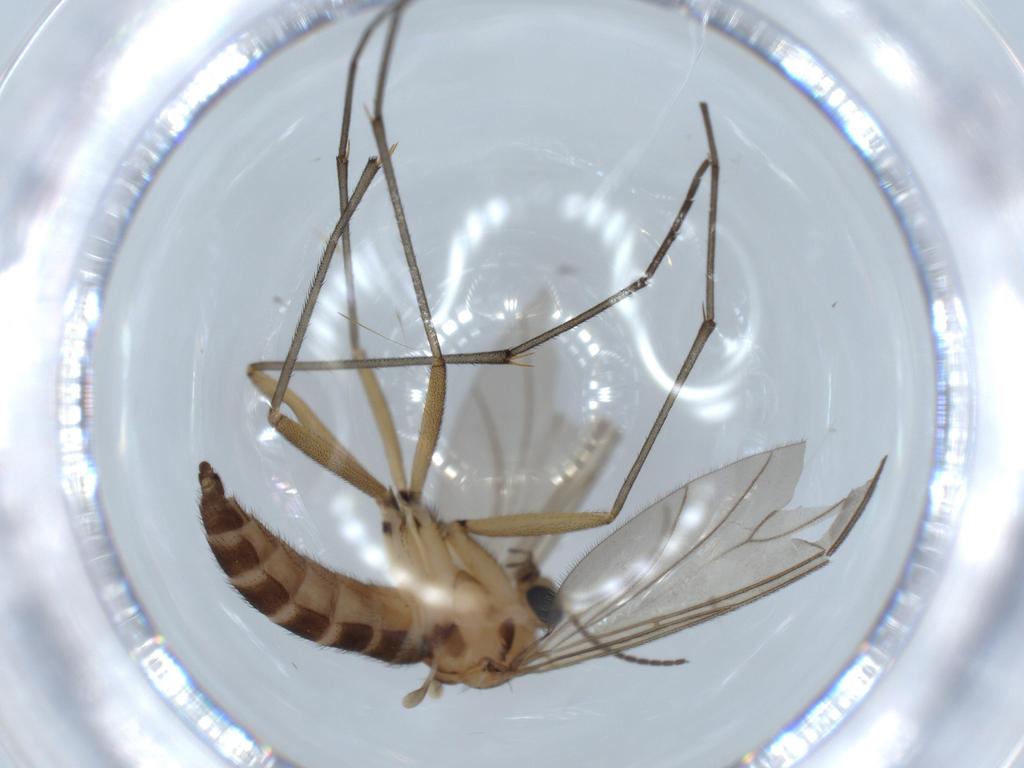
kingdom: Animalia
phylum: Arthropoda
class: Insecta
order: Diptera
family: Sciaridae
